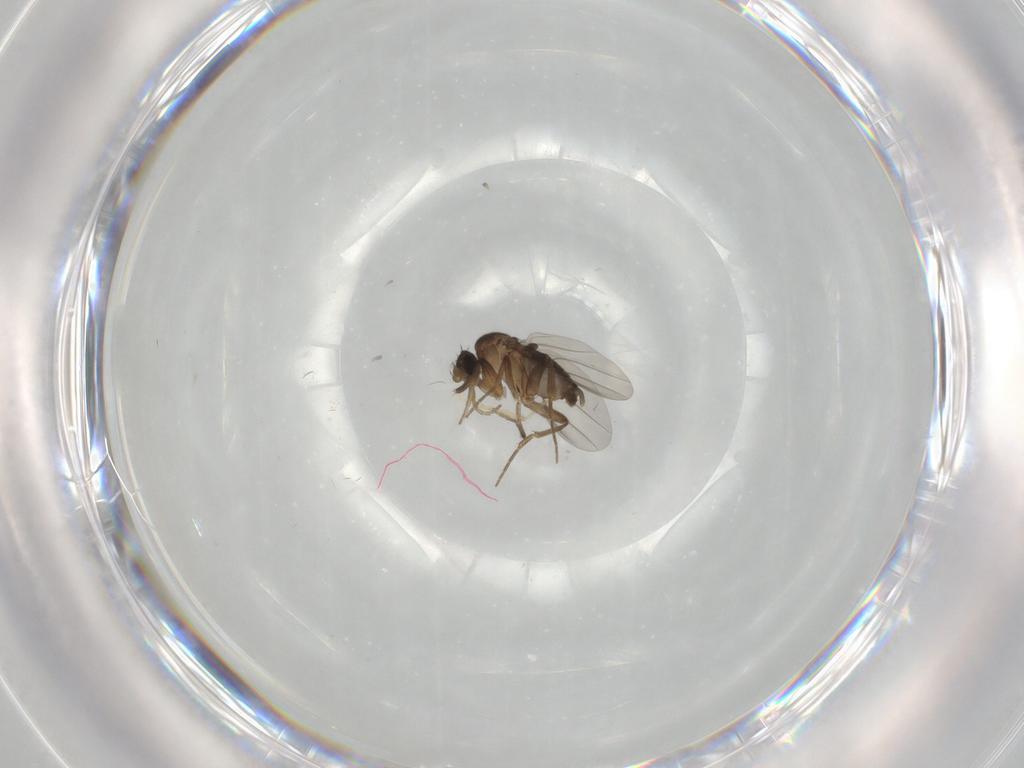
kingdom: Animalia
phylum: Arthropoda
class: Insecta
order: Diptera
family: Chironomidae
